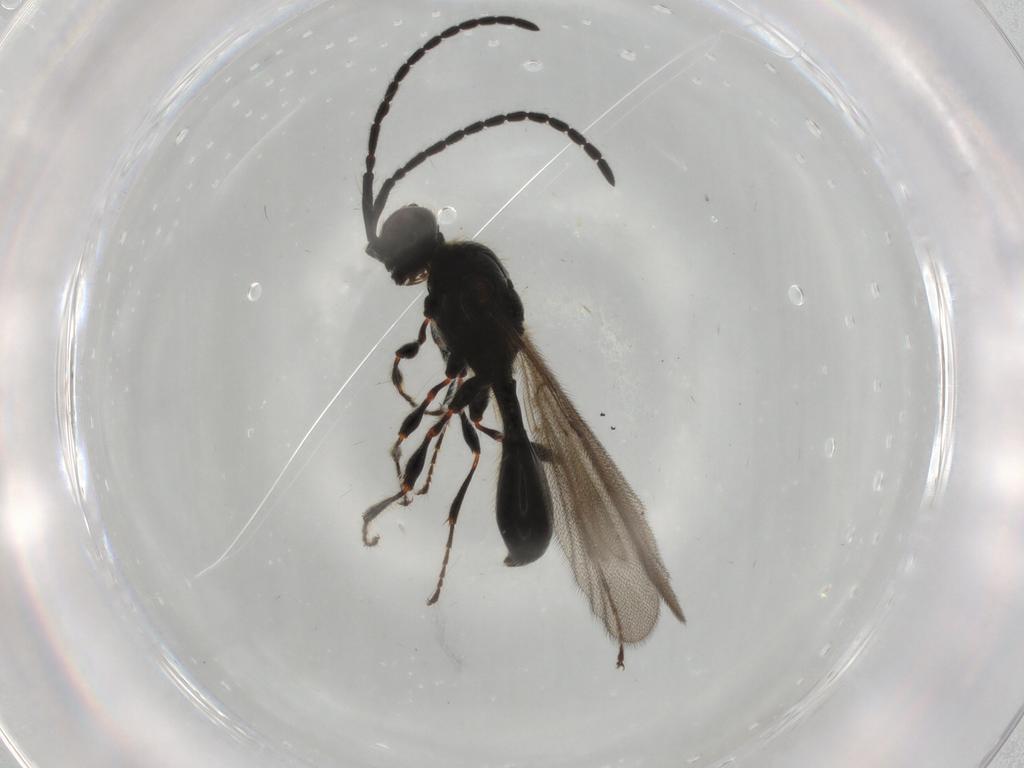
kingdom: Animalia
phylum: Arthropoda
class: Insecta
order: Hymenoptera
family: Diapriidae
